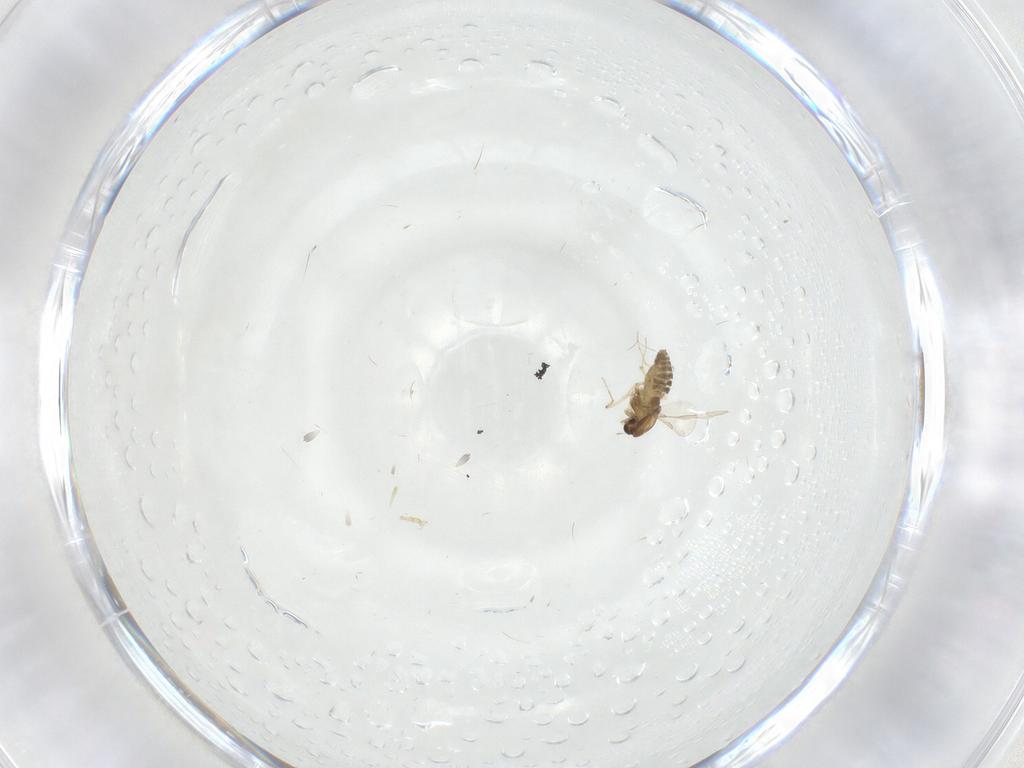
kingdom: Animalia
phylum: Arthropoda
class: Insecta
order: Diptera
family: Chironomidae
